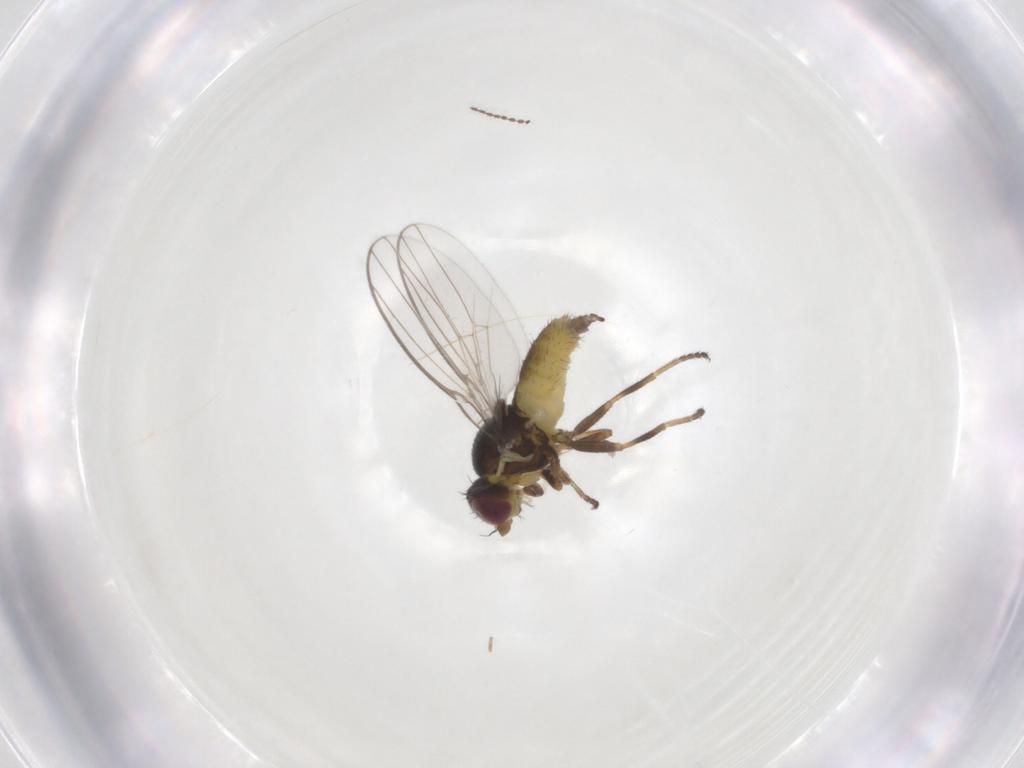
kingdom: Animalia
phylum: Arthropoda
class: Insecta
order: Diptera
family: Chloropidae
